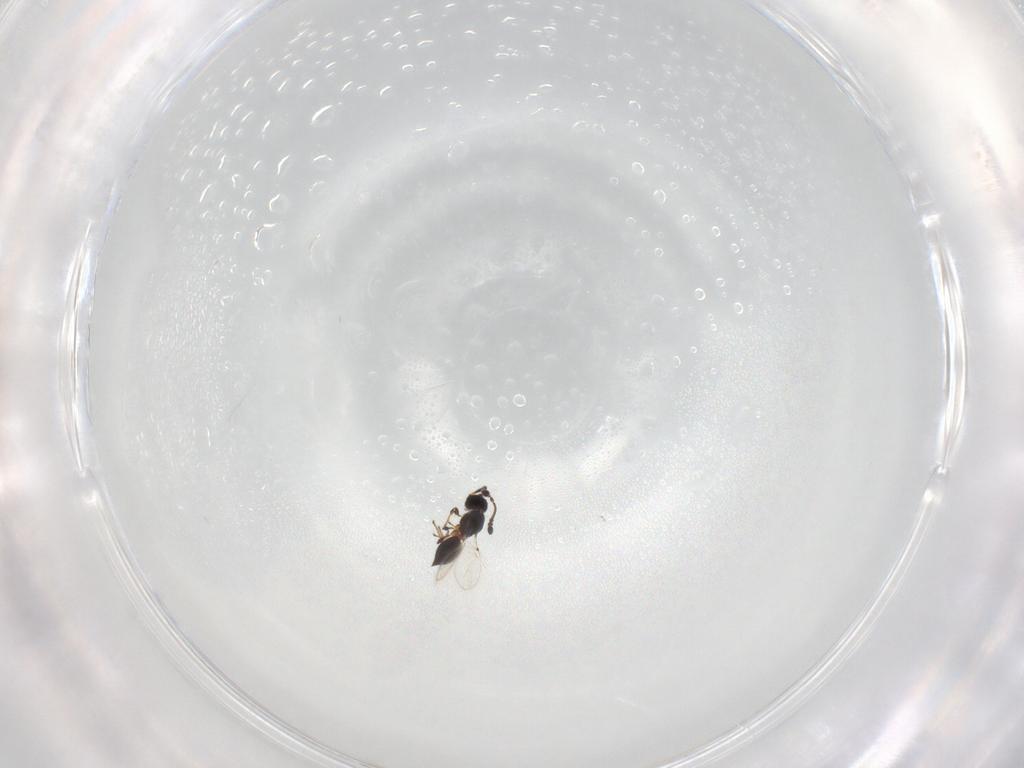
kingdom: Animalia
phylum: Arthropoda
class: Insecta
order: Hymenoptera
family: Diapriidae
